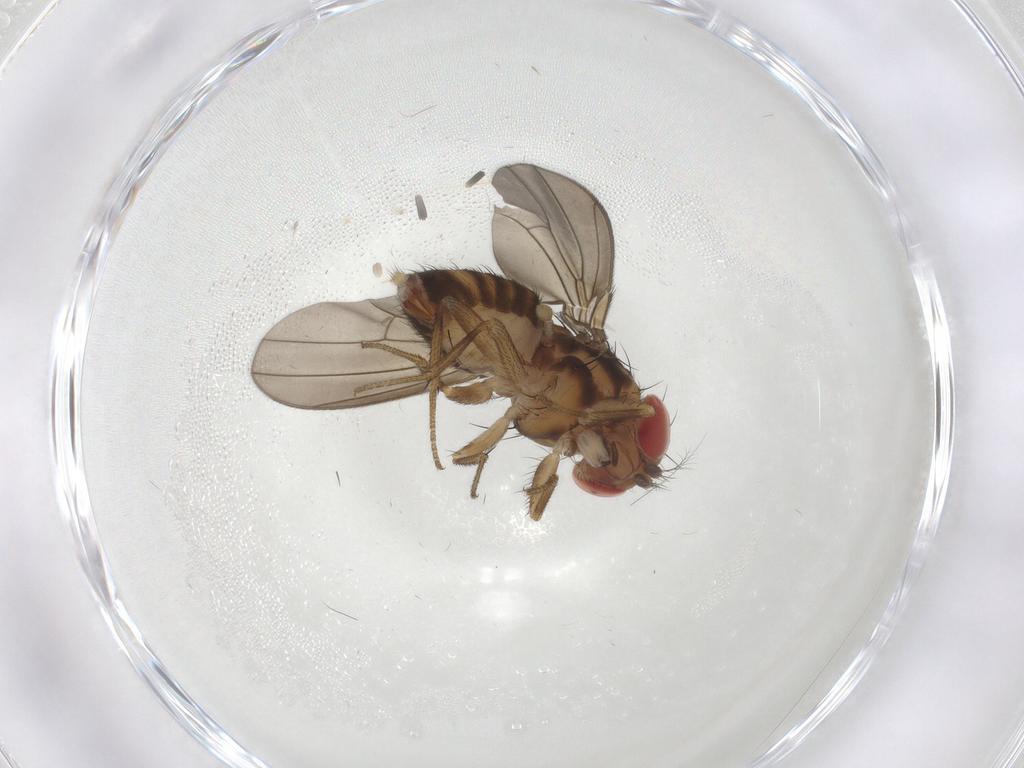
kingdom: Animalia
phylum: Arthropoda
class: Insecta
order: Diptera
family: Drosophilidae
